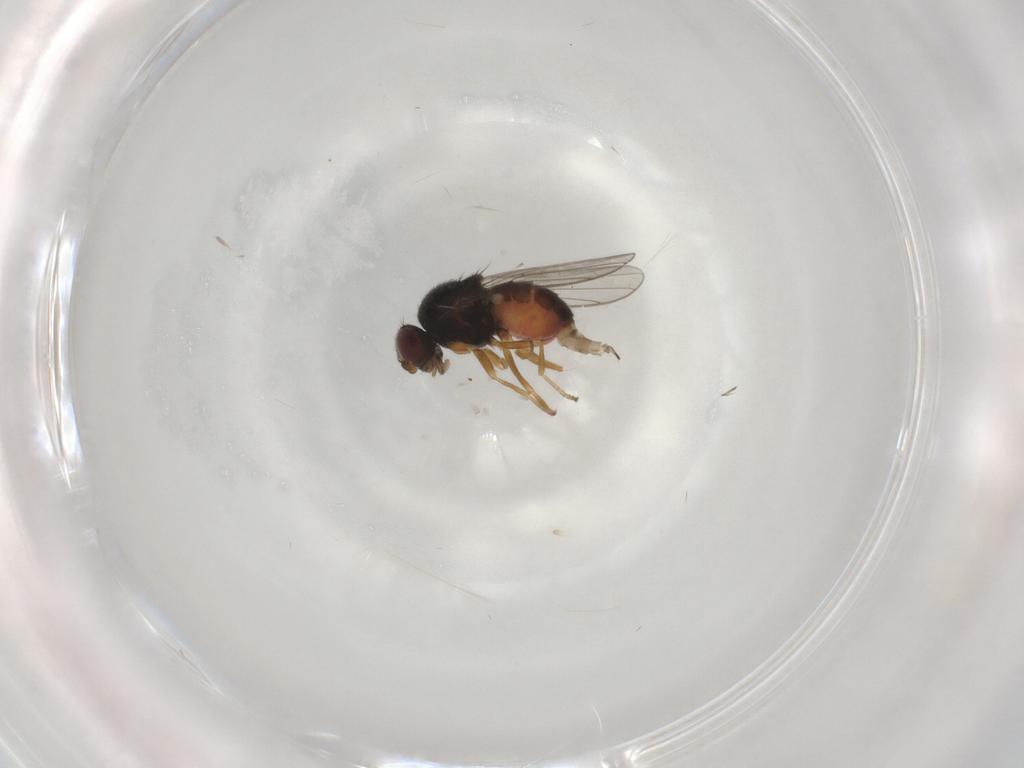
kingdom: Animalia
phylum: Arthropoda
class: Insecta
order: Diptera
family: Chloropidae
